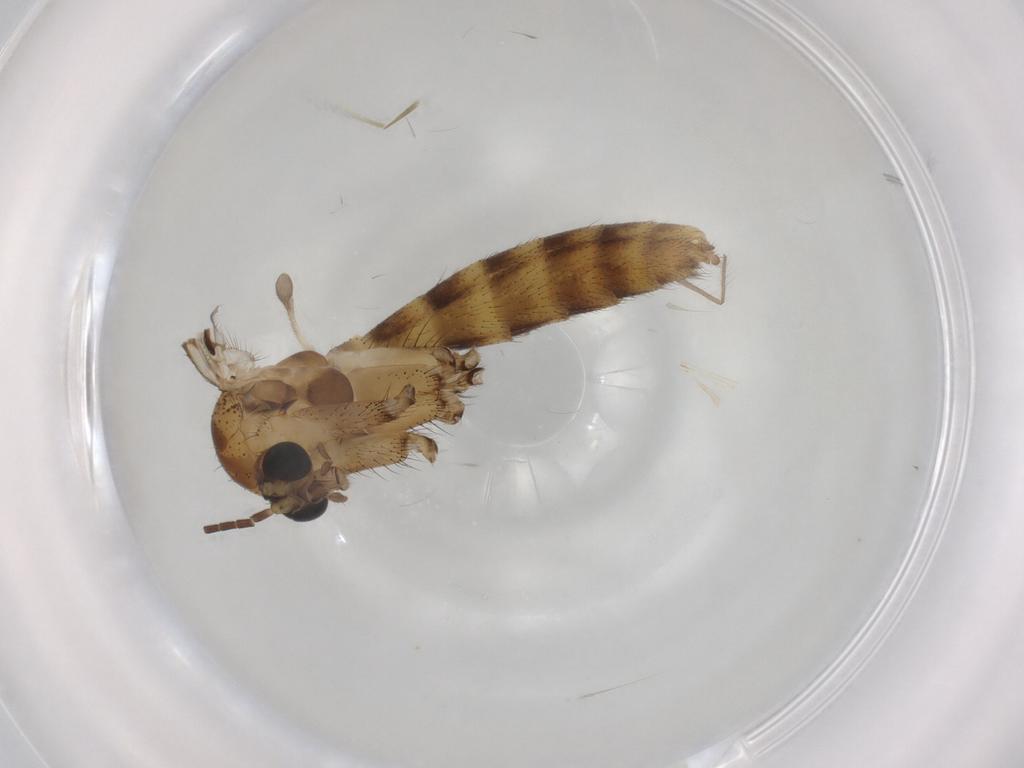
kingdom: Animalia
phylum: Arthropoda
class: Insecta
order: Diptera
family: Mycetophilidae
